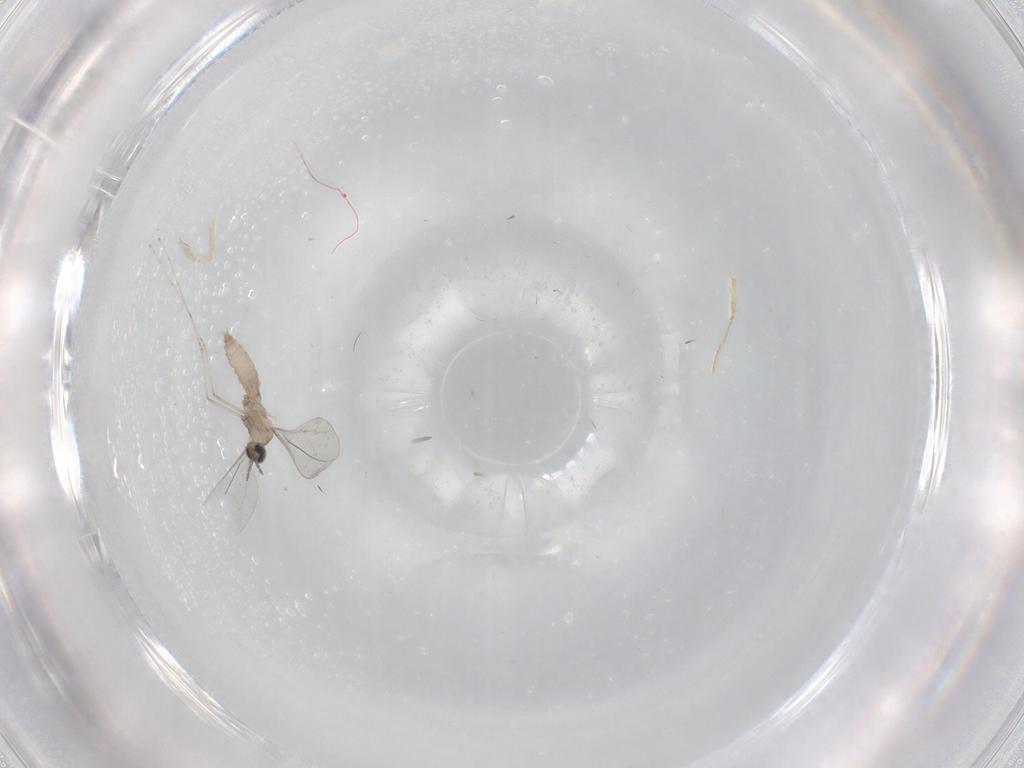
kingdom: Animalia
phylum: Arthropoda
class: Insecta
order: Diptera
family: Cecidomyiidae
